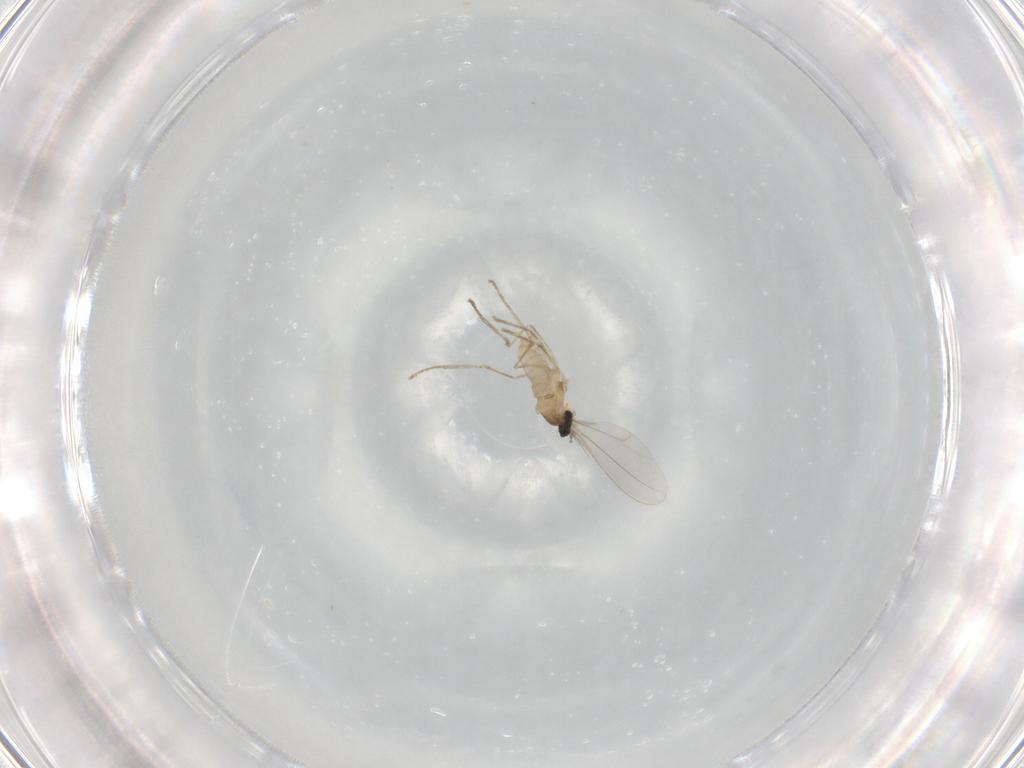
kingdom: Animalia
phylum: Arthropoda
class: Insecta
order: Diptera
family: Cecidomyiidae
